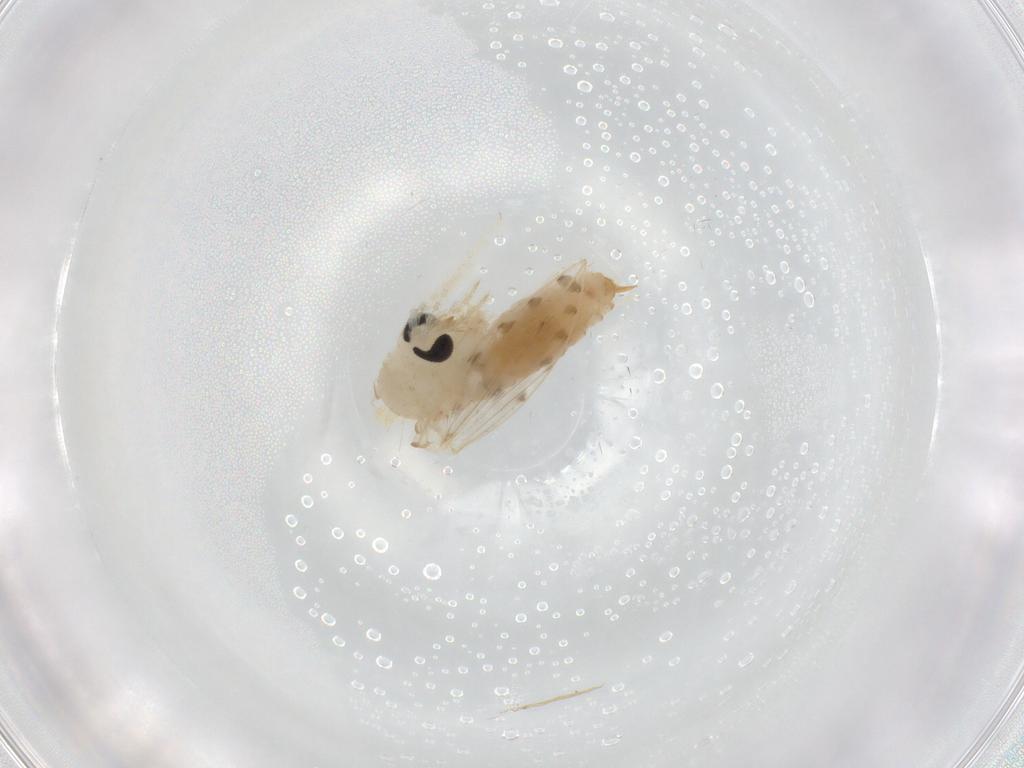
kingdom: Animalia
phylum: Arthropoda
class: Insecta
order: Diptera
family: Psychodidae
